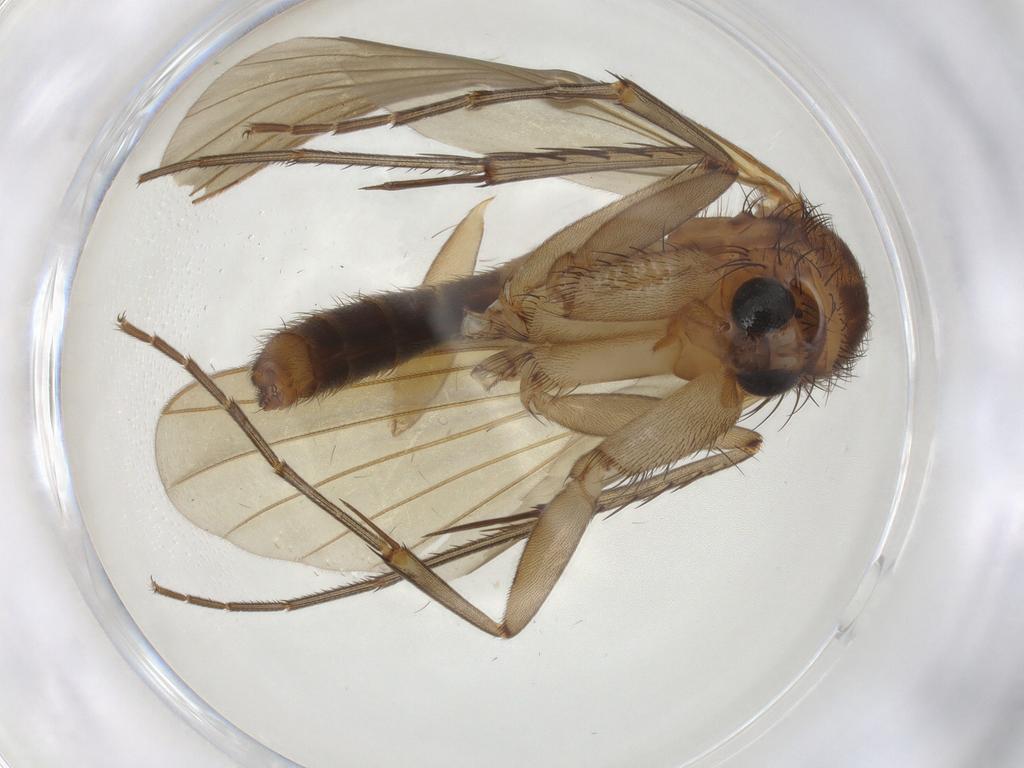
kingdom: Animalia
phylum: Arthropoda
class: Insecta
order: Diptera
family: Mycetophilidae
